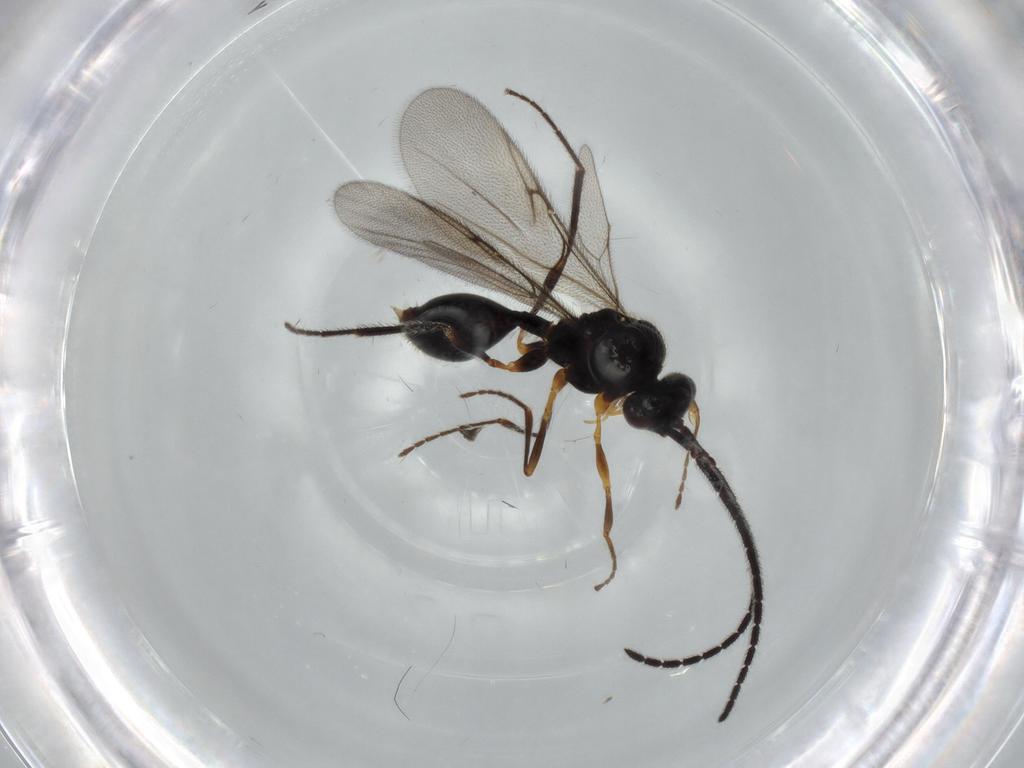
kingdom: Animalia
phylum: Arthropoda
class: Insecta
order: Hymenoptera
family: Diapriidae
